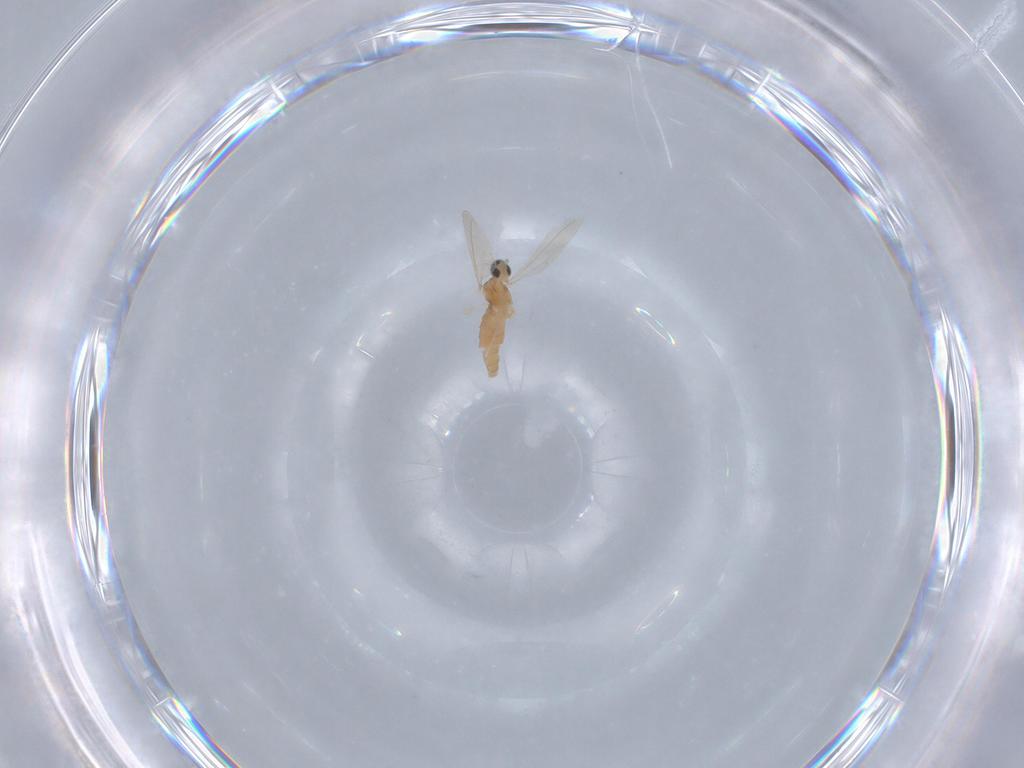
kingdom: Animalia
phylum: Arthropoda
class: Insecta
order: Diptera
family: Cecidomyiidae
